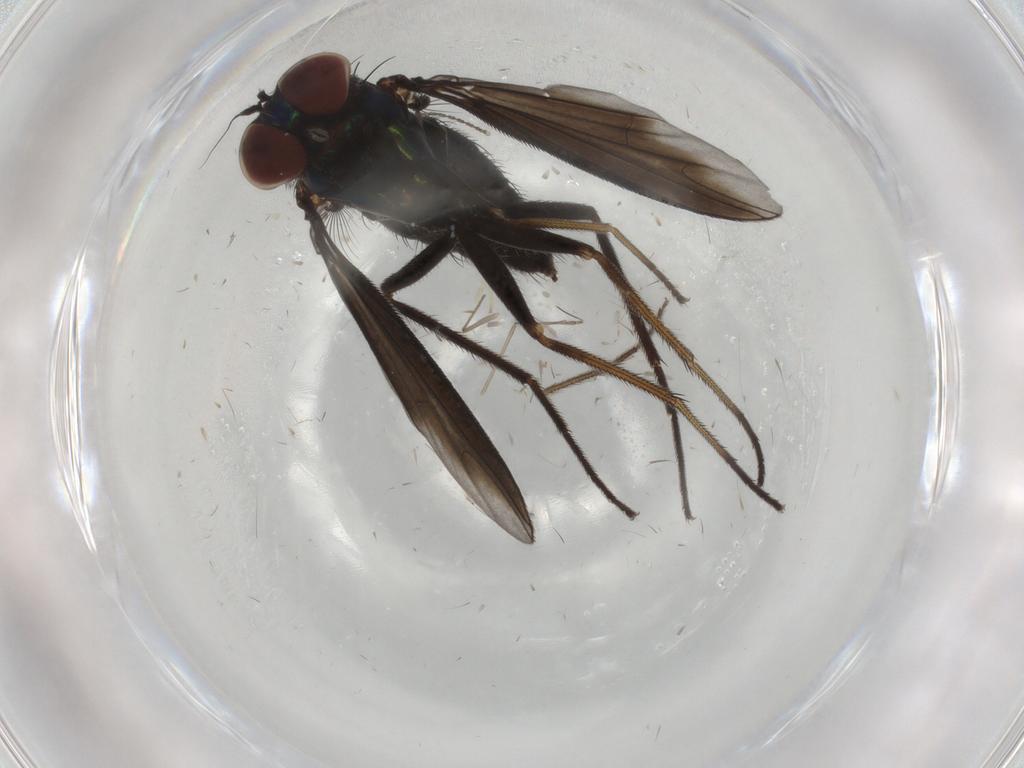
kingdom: Animalia
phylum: Arthropoda
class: Insecta
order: Diptera
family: Dolichopodidae
